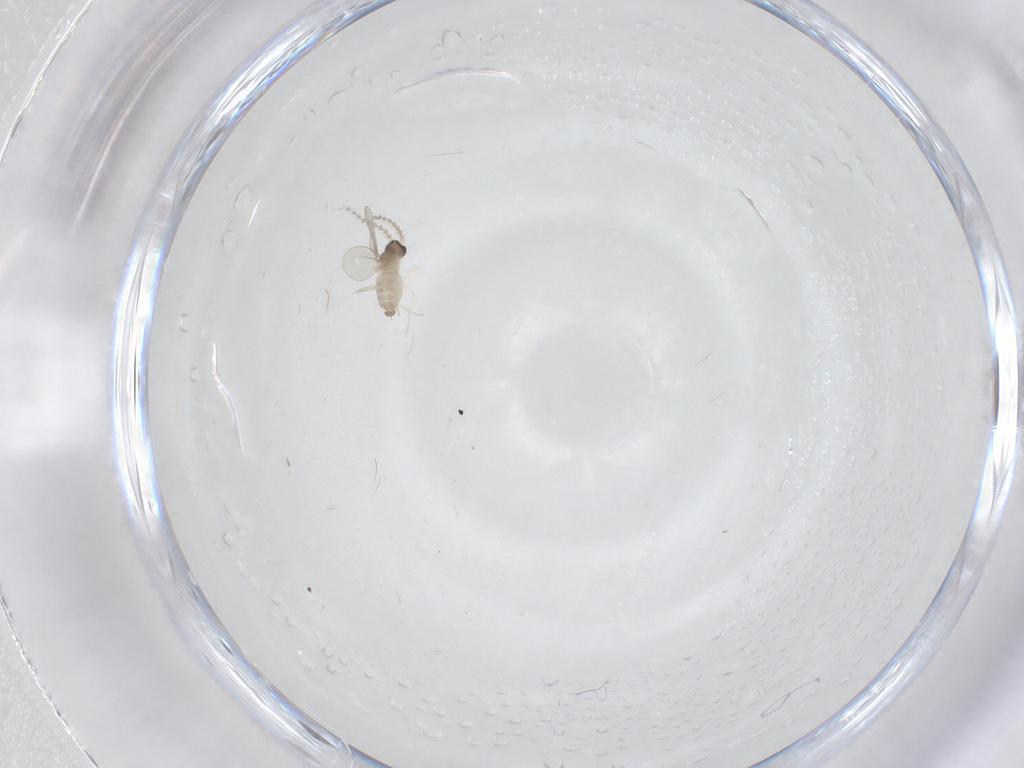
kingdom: Animalia
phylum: Arthropoda
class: Insecta
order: Diptera
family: Cecidomyiidae
